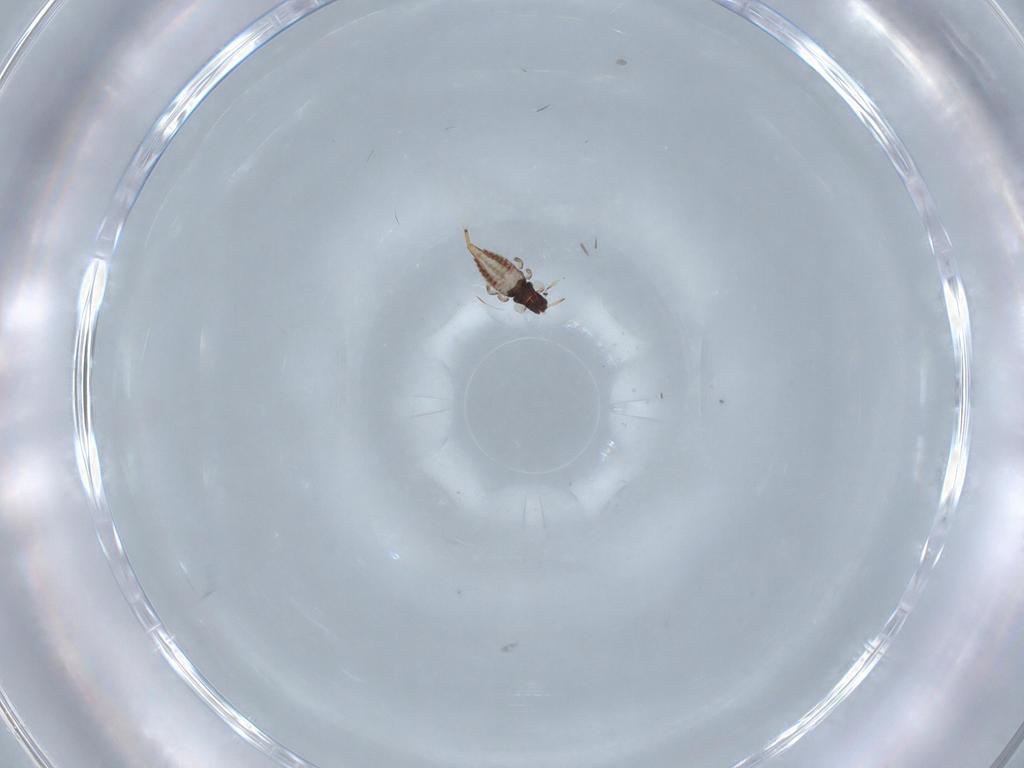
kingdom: Animalia
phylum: Arthropoda
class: Insecta
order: Thysanoptera
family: Phlaeothripidae
